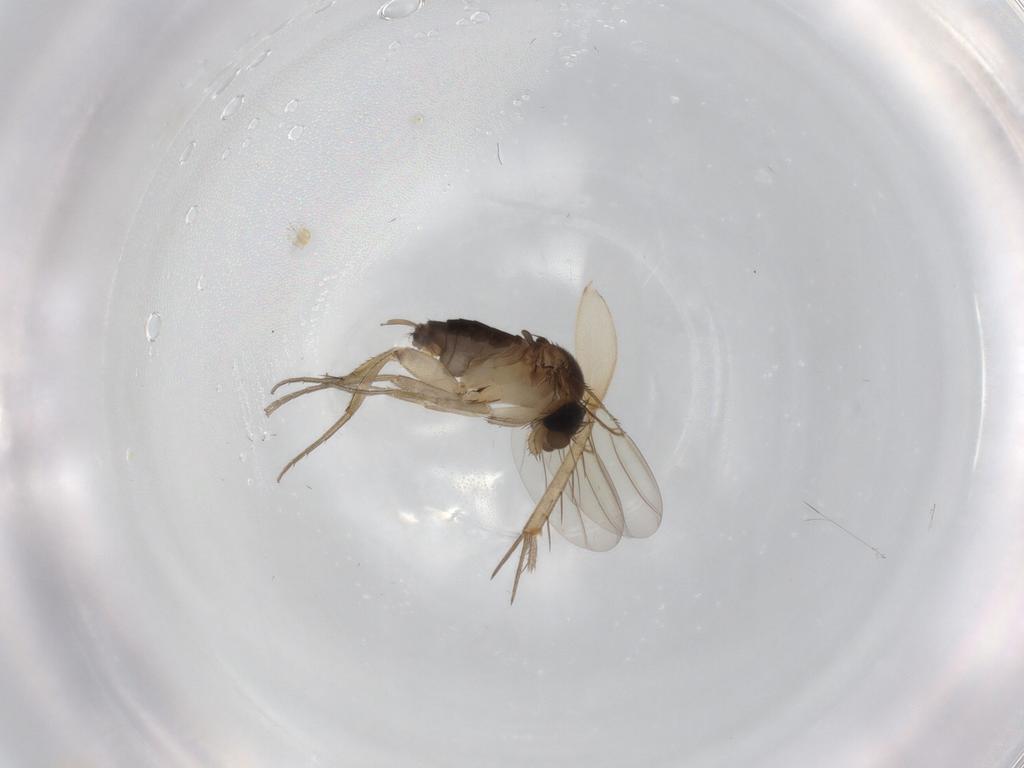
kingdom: Animalia
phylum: Arthropoda
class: Insecta
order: Diptera
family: Phoridae
